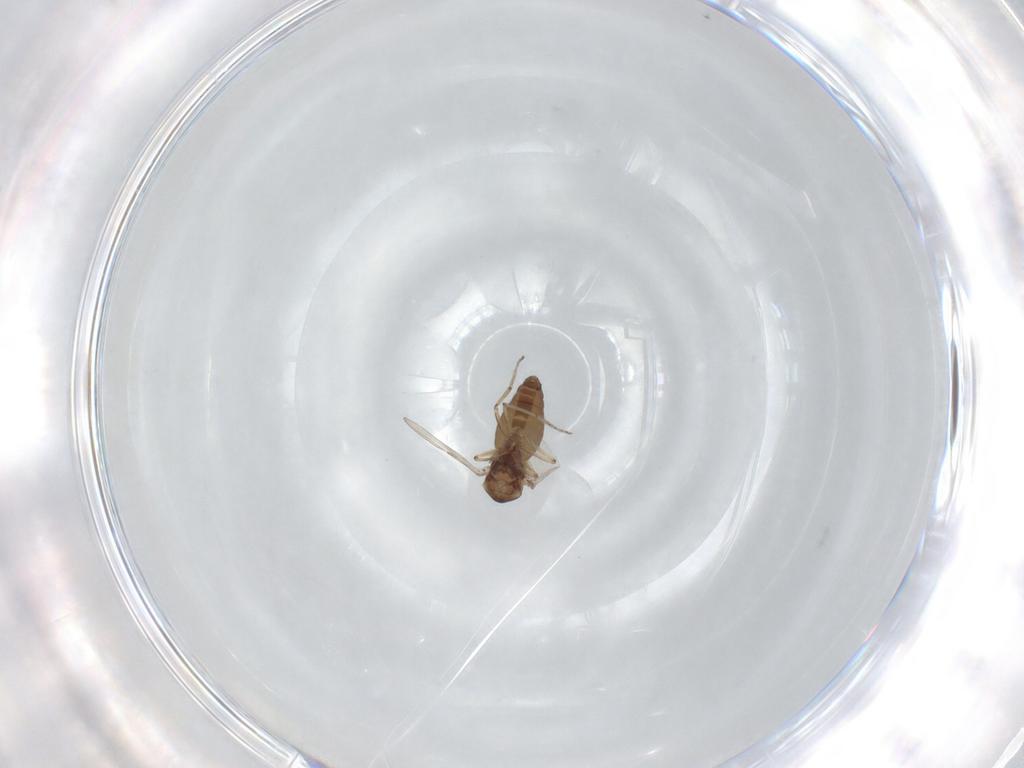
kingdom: Animalia
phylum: Arthropoda
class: Insecta
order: Diptera
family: Ceratopogonidae
